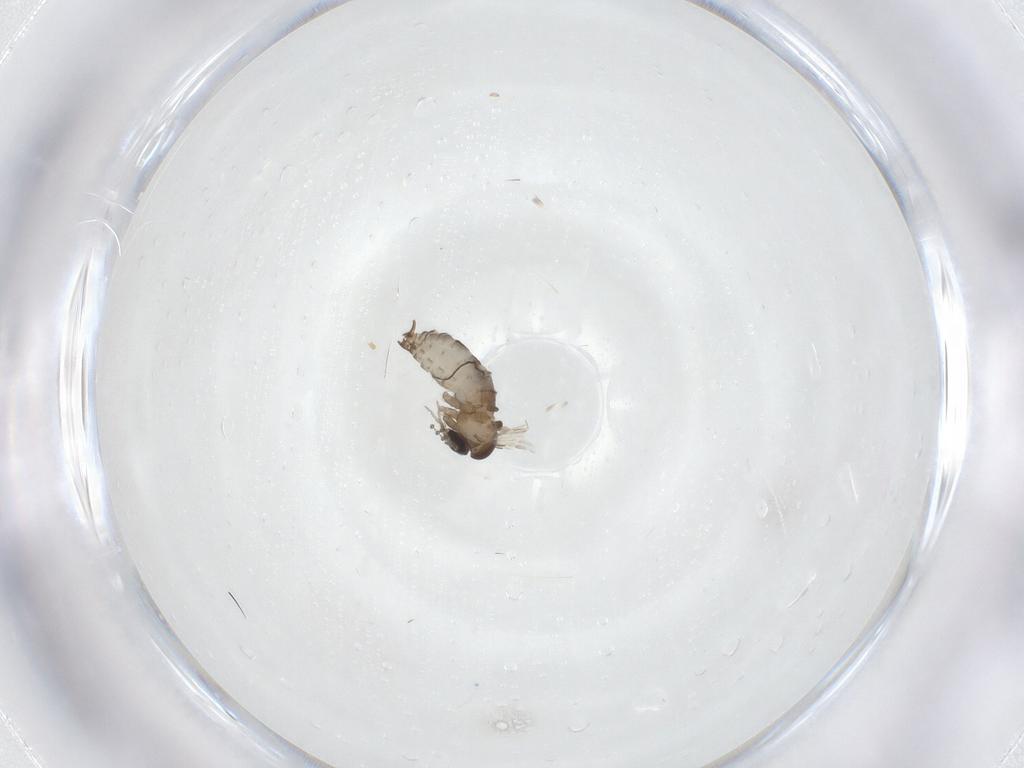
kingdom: Animalia
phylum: Arthropoda
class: Insecta
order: Diptera
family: Psychodidae
